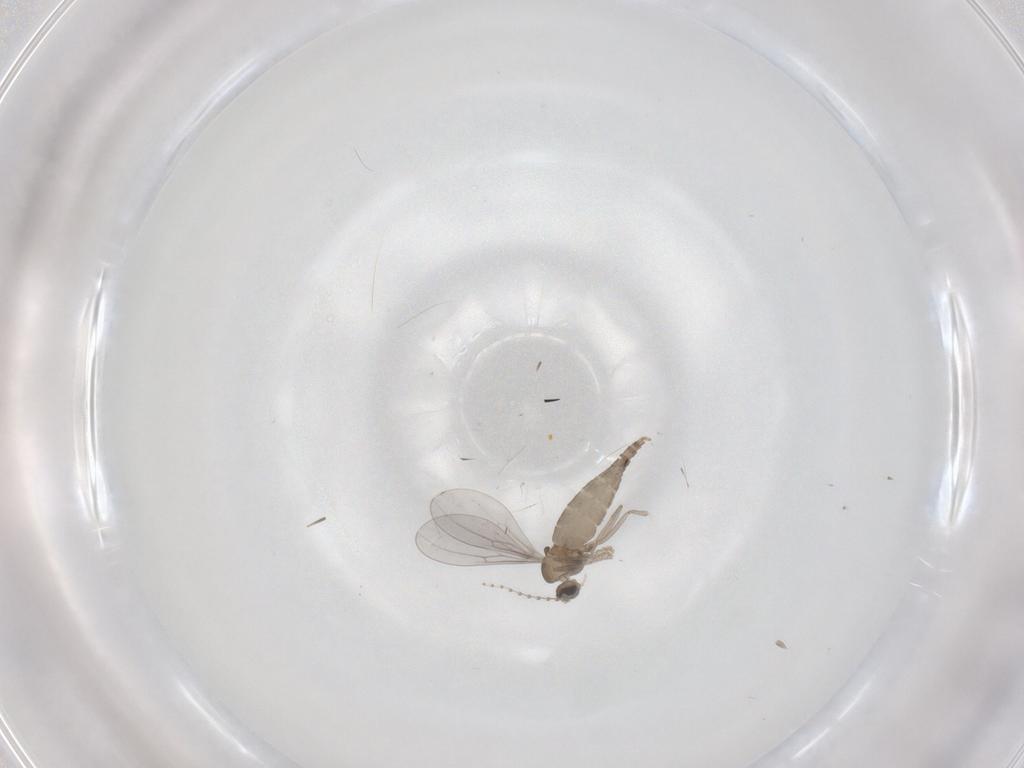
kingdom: Animalia
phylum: Arthropoda
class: Insecta
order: Diptera
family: Cecidomyiidae
